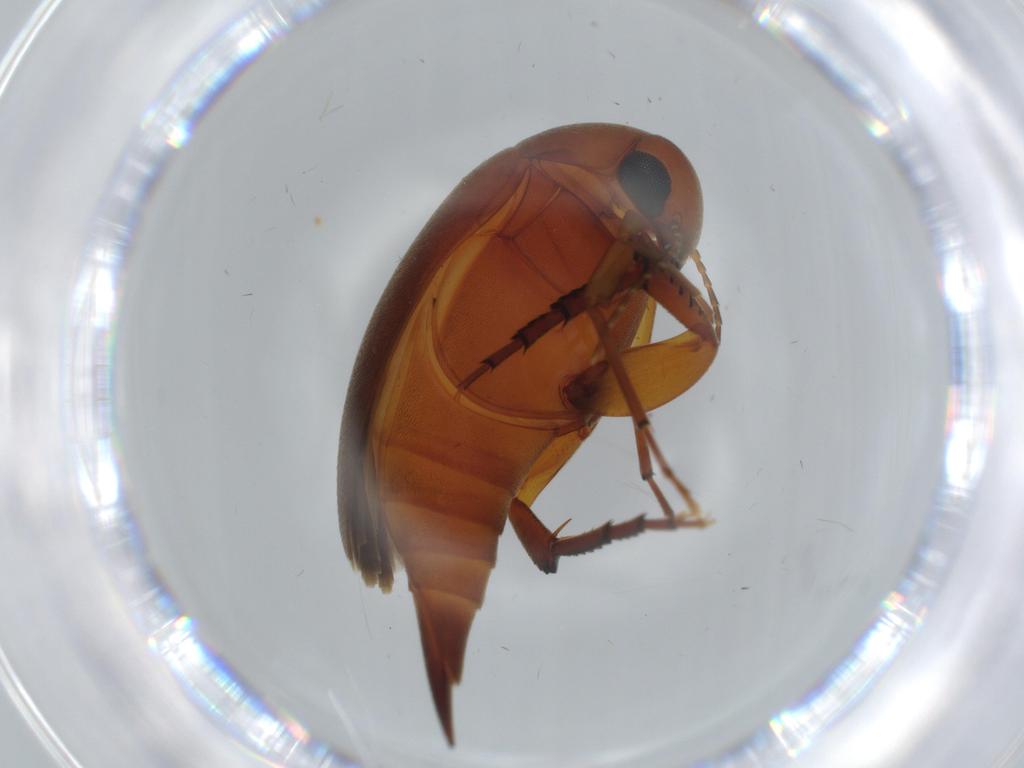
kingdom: Animalia
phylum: Arthropoda
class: Insecta
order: Coleoptera
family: Mordellidae
